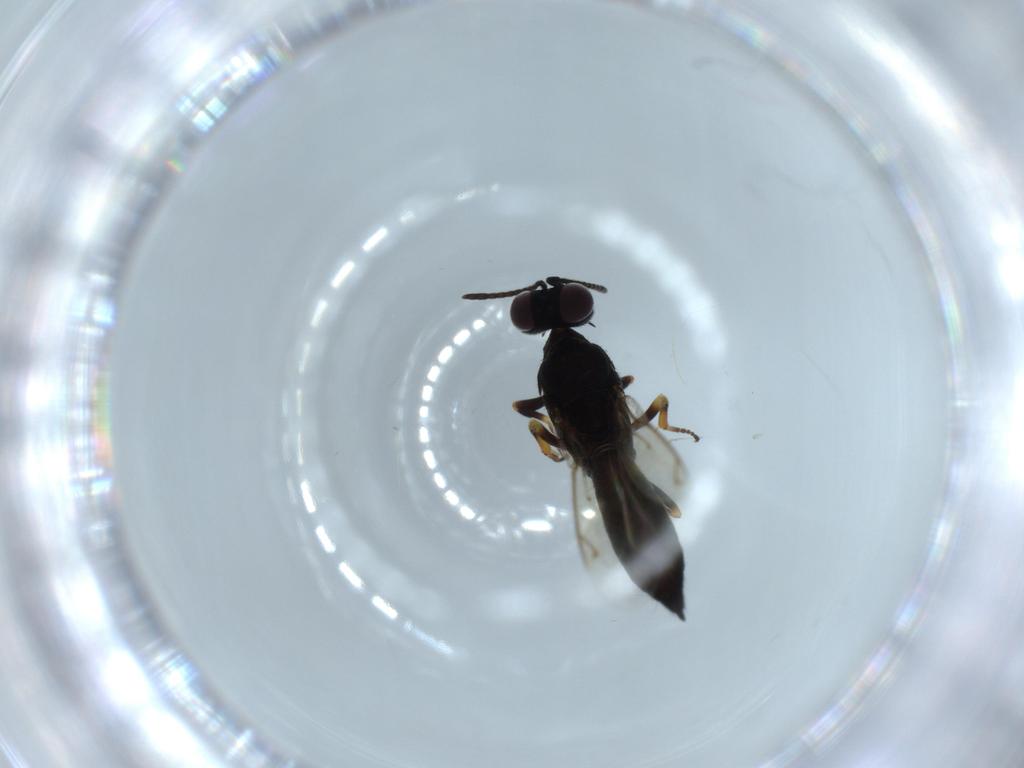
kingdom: Animalia
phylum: Arthropoda
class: Insecta
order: Hymenoptera
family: Eupelmidae
